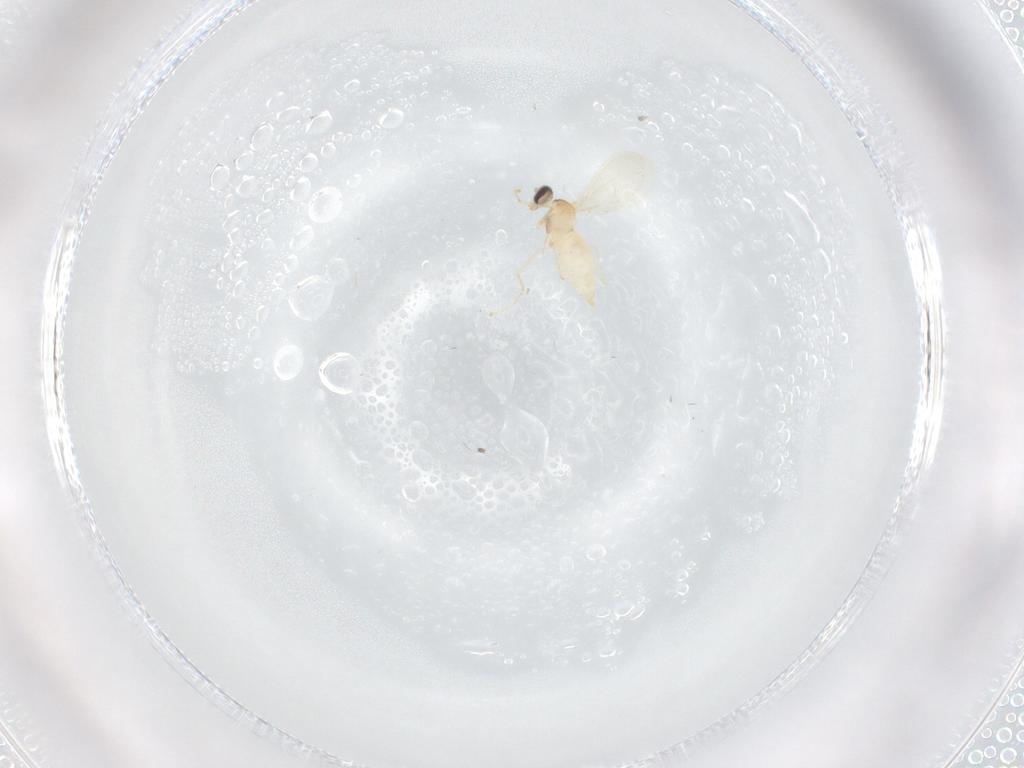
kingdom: Animalia
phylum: Arthropoda
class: Insecta
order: Diptera
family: Cecidomyiidae
